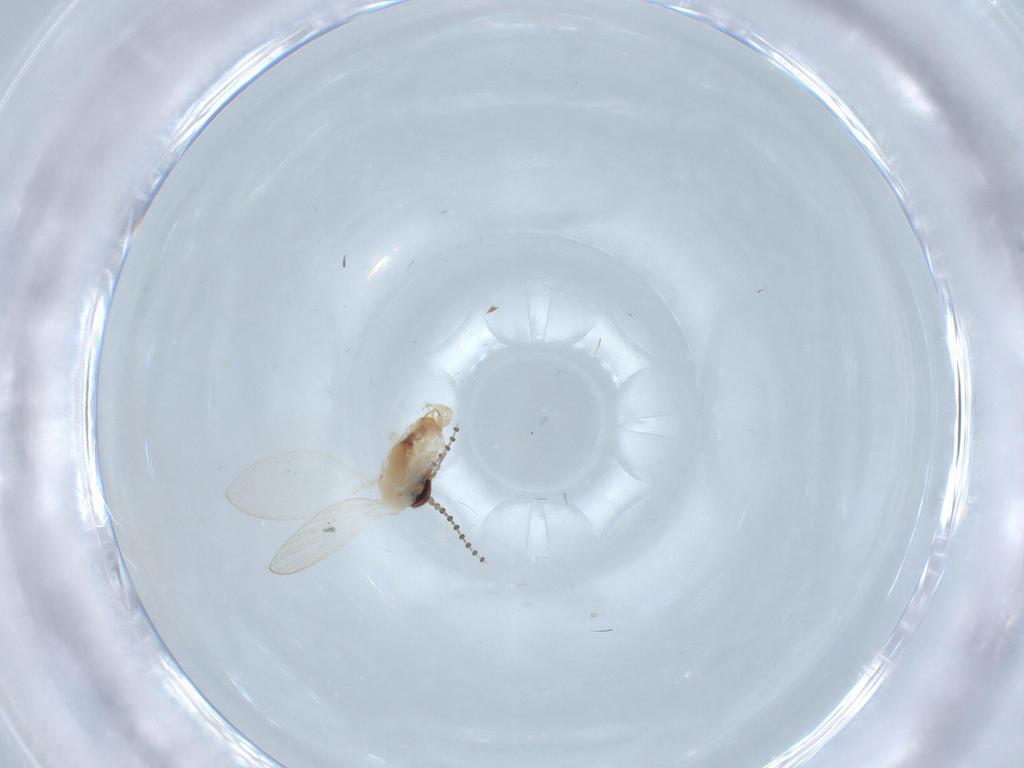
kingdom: Animalia
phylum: Arthropoda
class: Insecta
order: Diptera
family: Psychodidae
